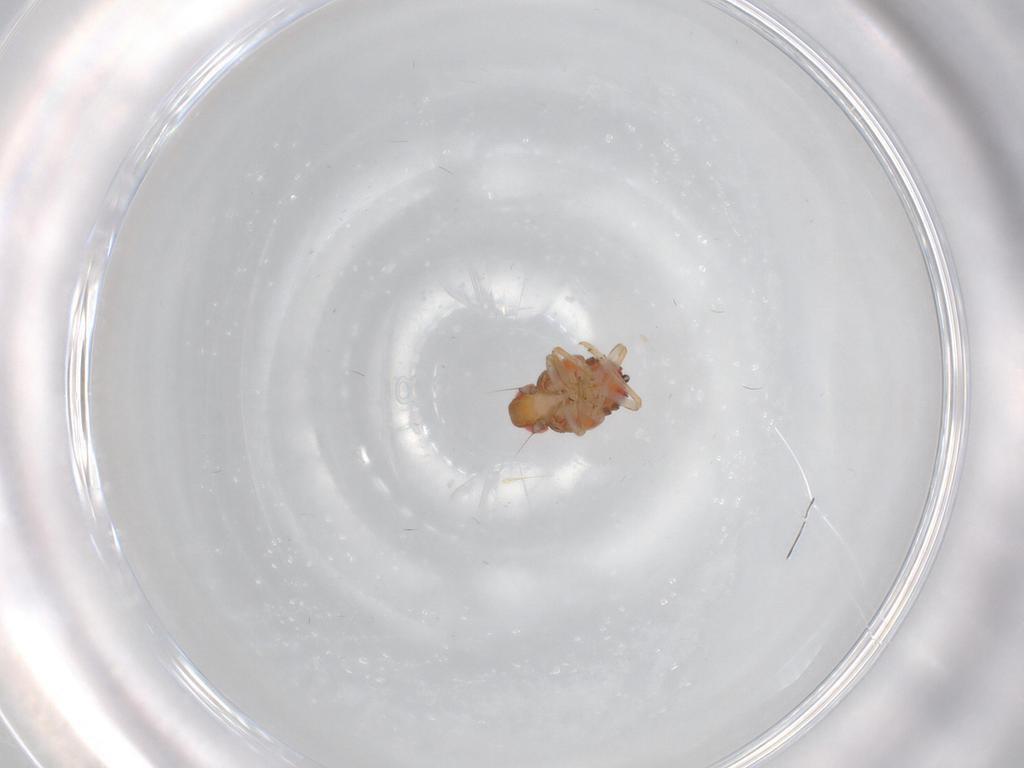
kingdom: Animalia
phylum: Arthropoda
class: Insecta
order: Hemiptera
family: Issidae
